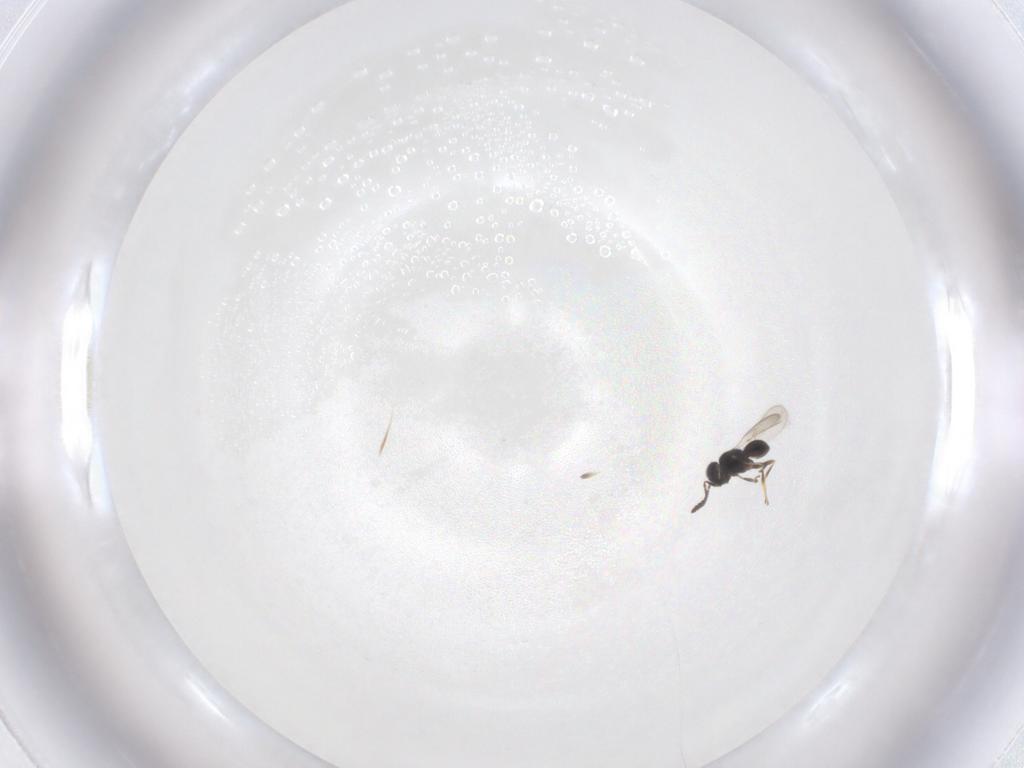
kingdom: Animalia
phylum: Arthropoda
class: Insecta
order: Hymenoptera
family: Scelionidae
